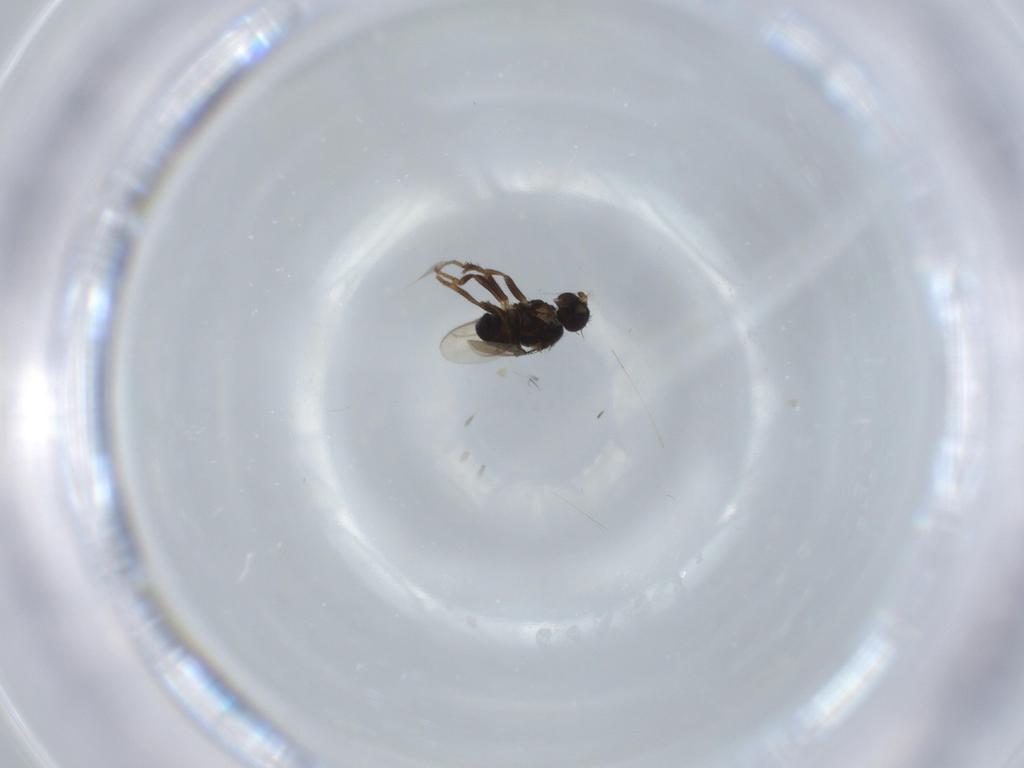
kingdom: Animalia
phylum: Arthropoda
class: Insecta
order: Diptera
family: Sphaeroceridae
